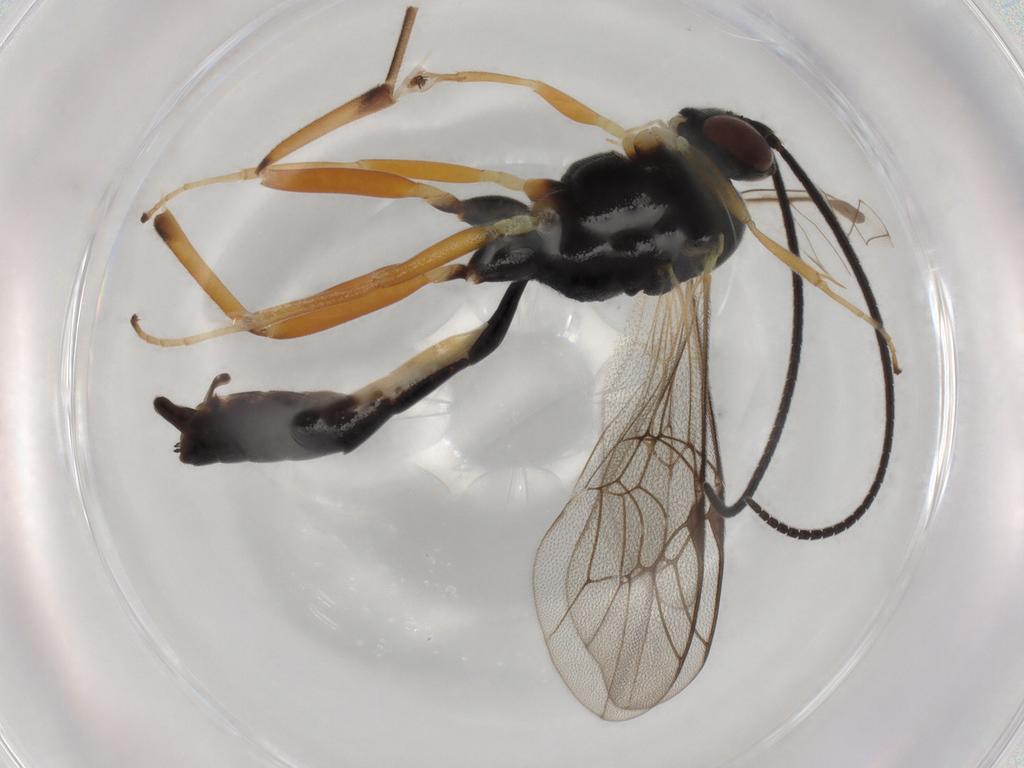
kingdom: Animalia
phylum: Arthropoda
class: Insecta
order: Hymenoptera
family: Ichneumonidae
